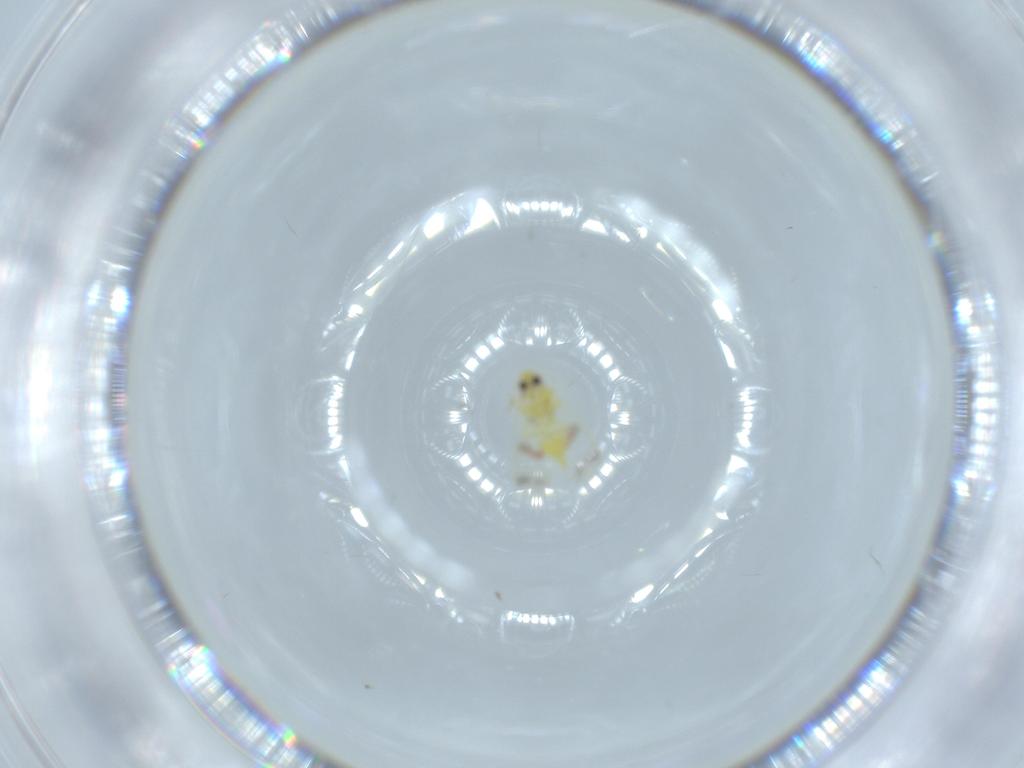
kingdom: Animalia
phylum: Arthropoda
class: Insecta
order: Hemiptera
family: Aleyrodidae
